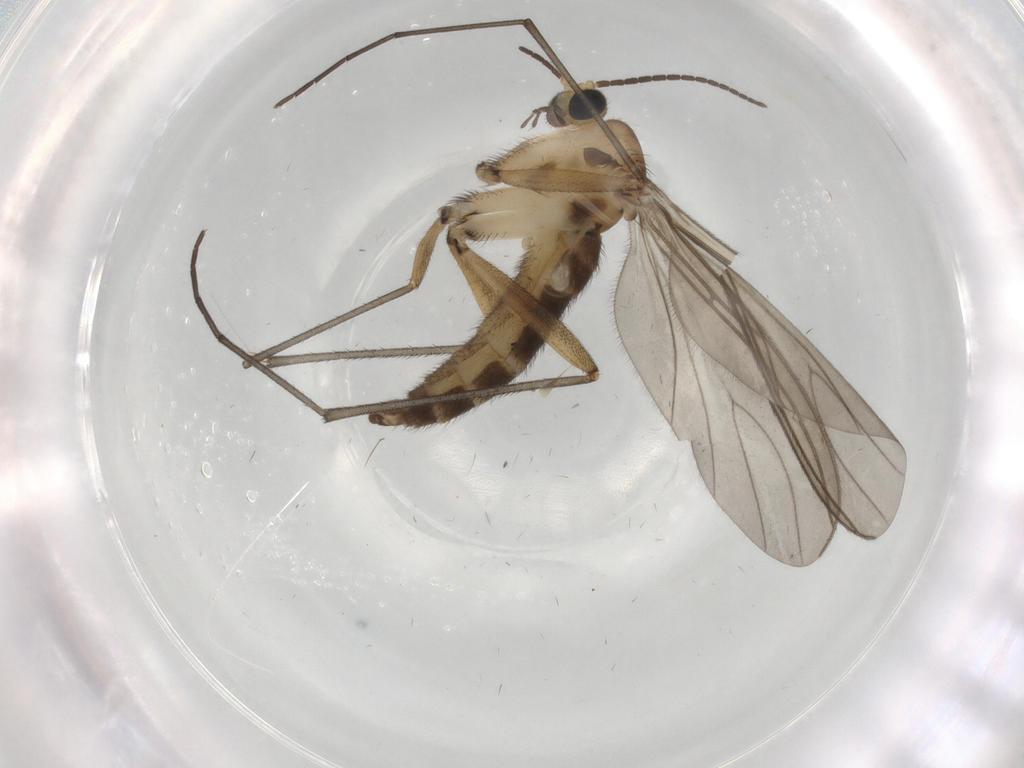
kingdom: Animalia
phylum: Arthropoda
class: Insecta
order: Diptera
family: Sciaridae
